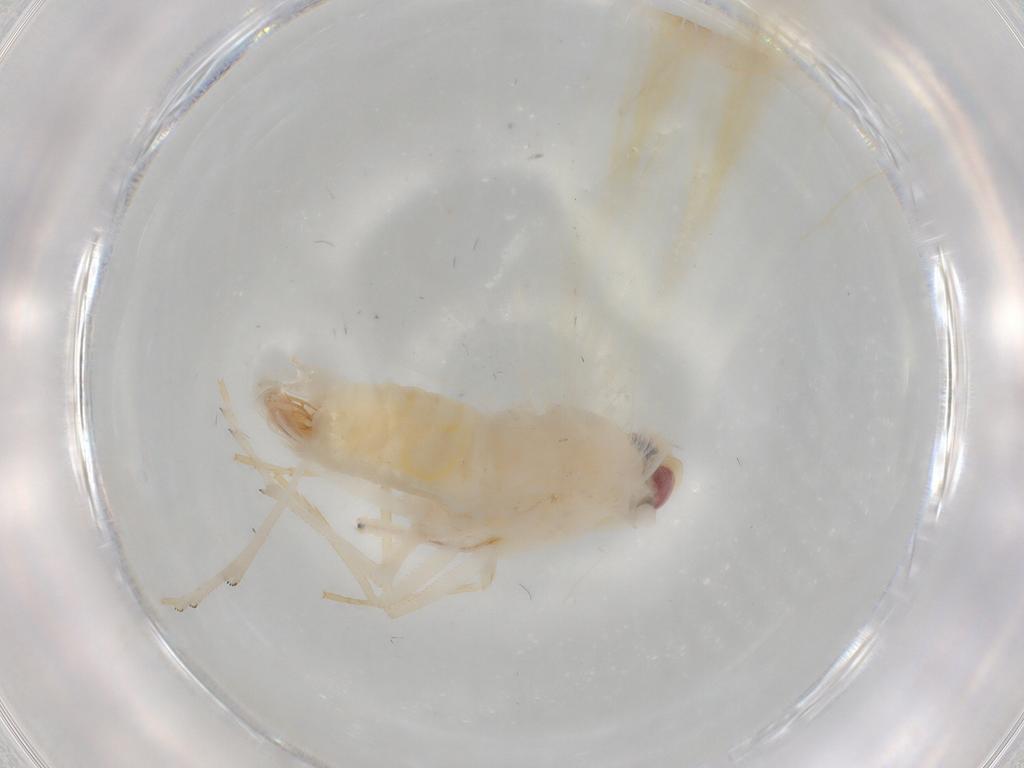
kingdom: Animalia
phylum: Arthropoda
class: Insecta
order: Hemiptera
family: Derbidae
